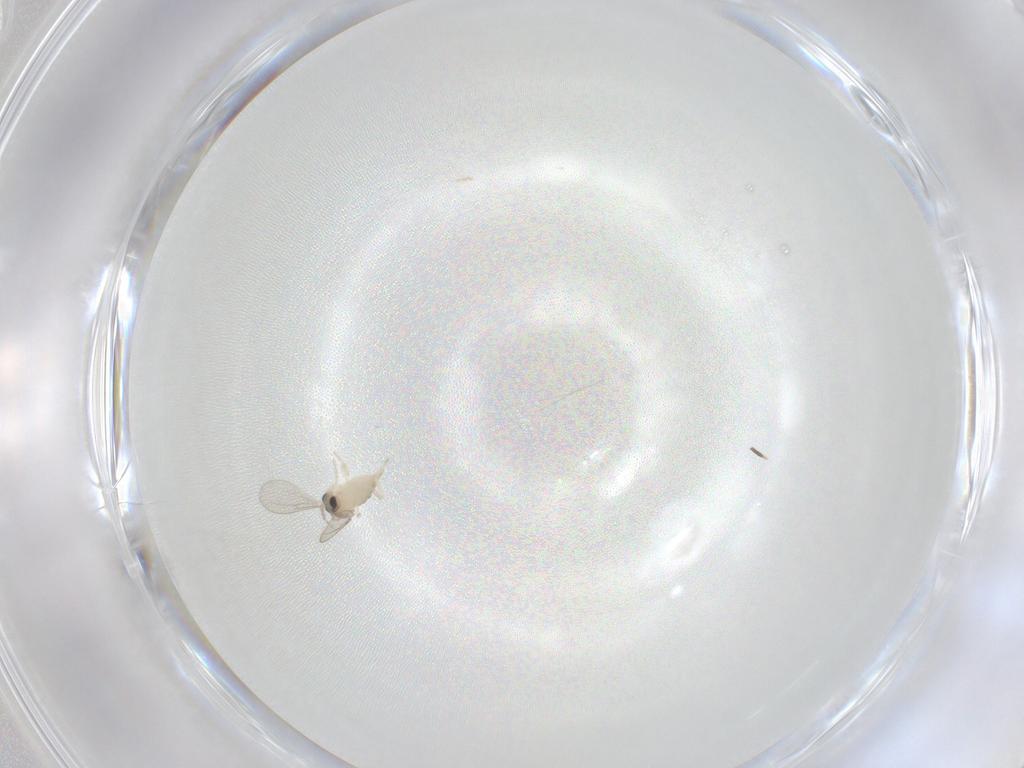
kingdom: Animalia
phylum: Arthropoda
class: Insecta
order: Diptera
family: Cecidomyiidae
